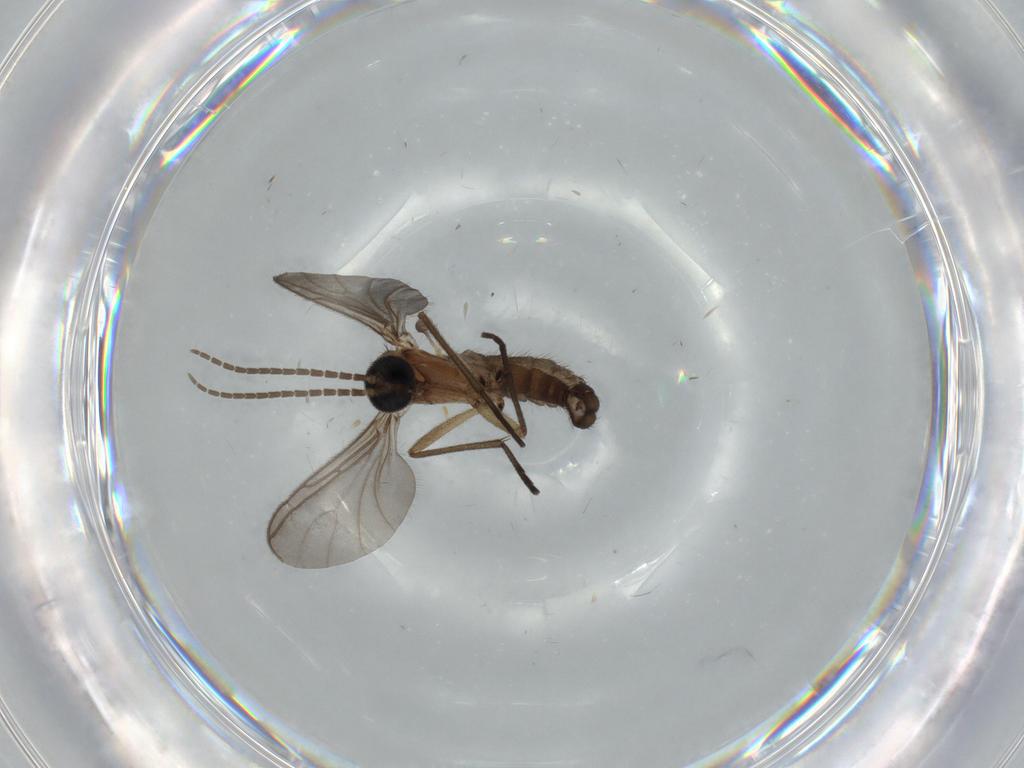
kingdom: Animalia
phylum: Arthropoda
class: Insecta
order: Diptera
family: Sciaridae
